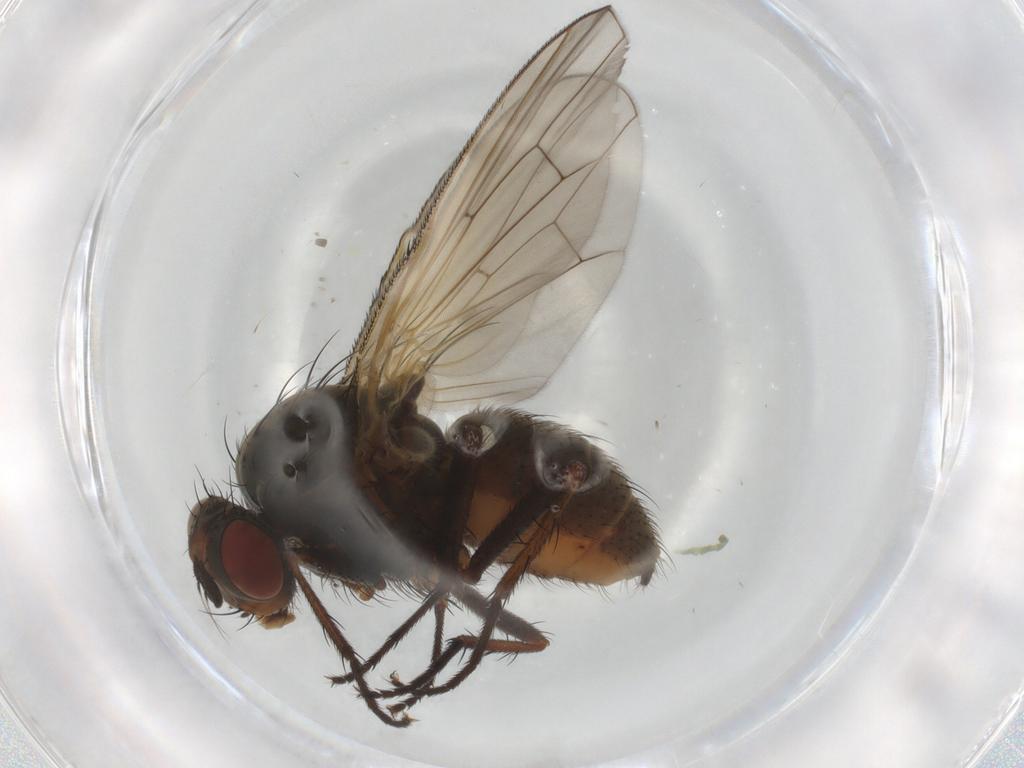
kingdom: Animalia
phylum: Arthropoda
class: Insecta
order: Diptera
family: Anthomyiidae
